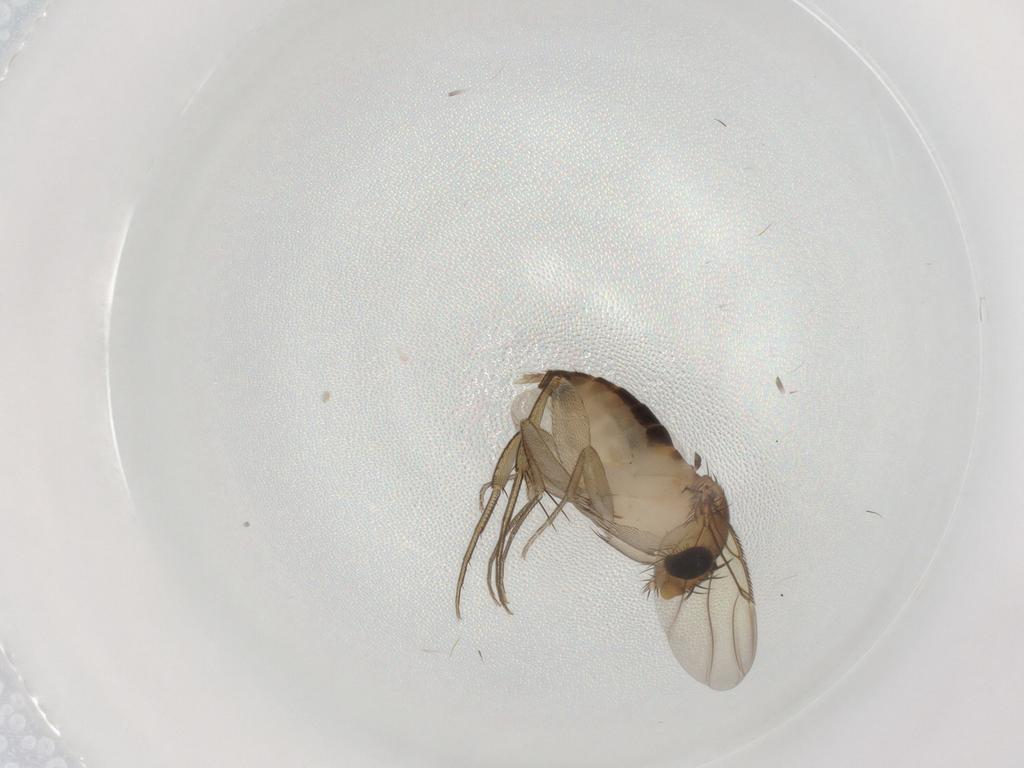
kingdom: Animalia
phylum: Arthropoda
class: Insecta
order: Diptera
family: Phoridae
